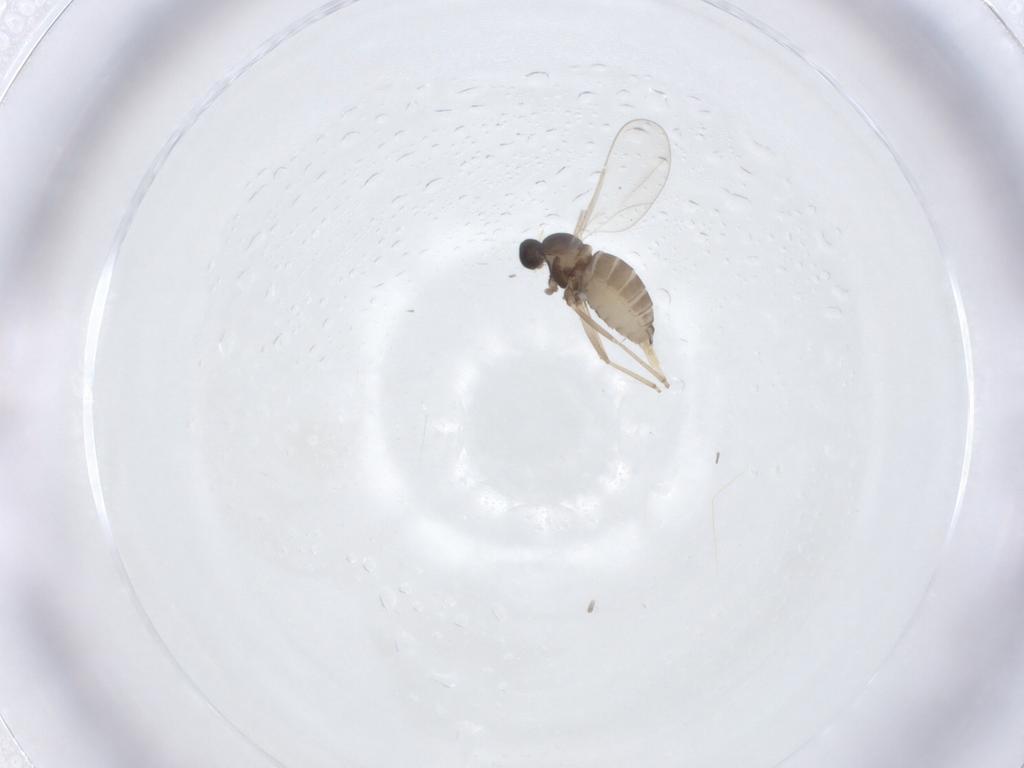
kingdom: Animalia
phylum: Arthropoda
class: Insecta
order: Diptera
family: Cecidomyiidae
